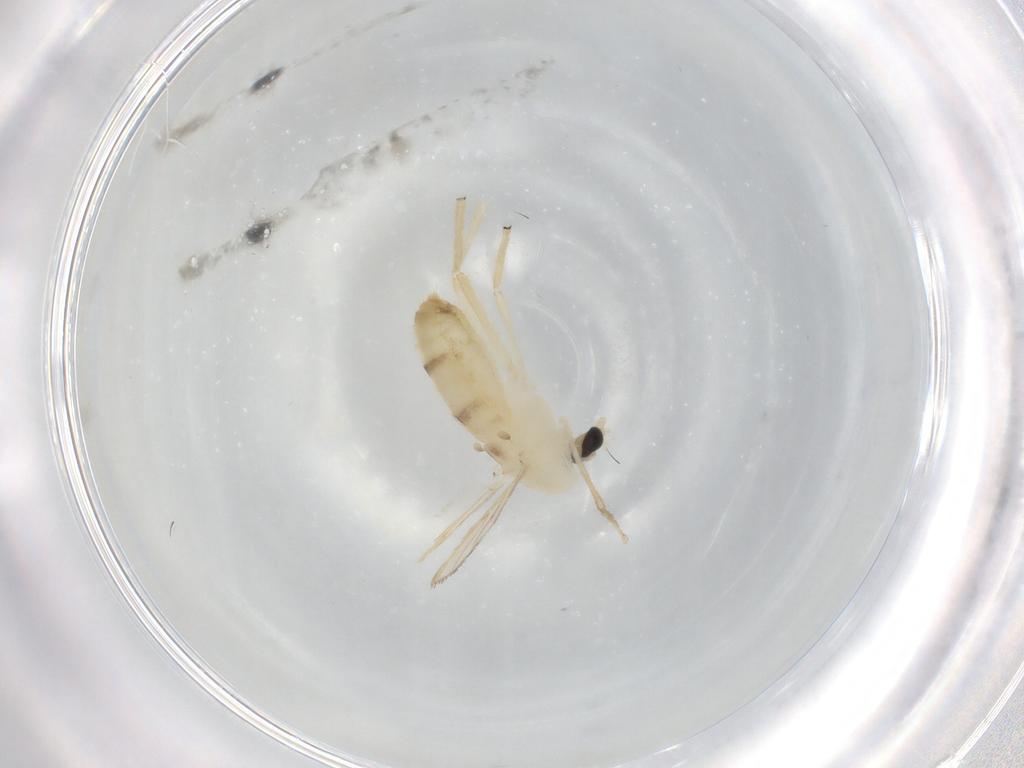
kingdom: Animalia
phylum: Arthropoda
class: Insecta
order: Diptera
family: Chironomidae
